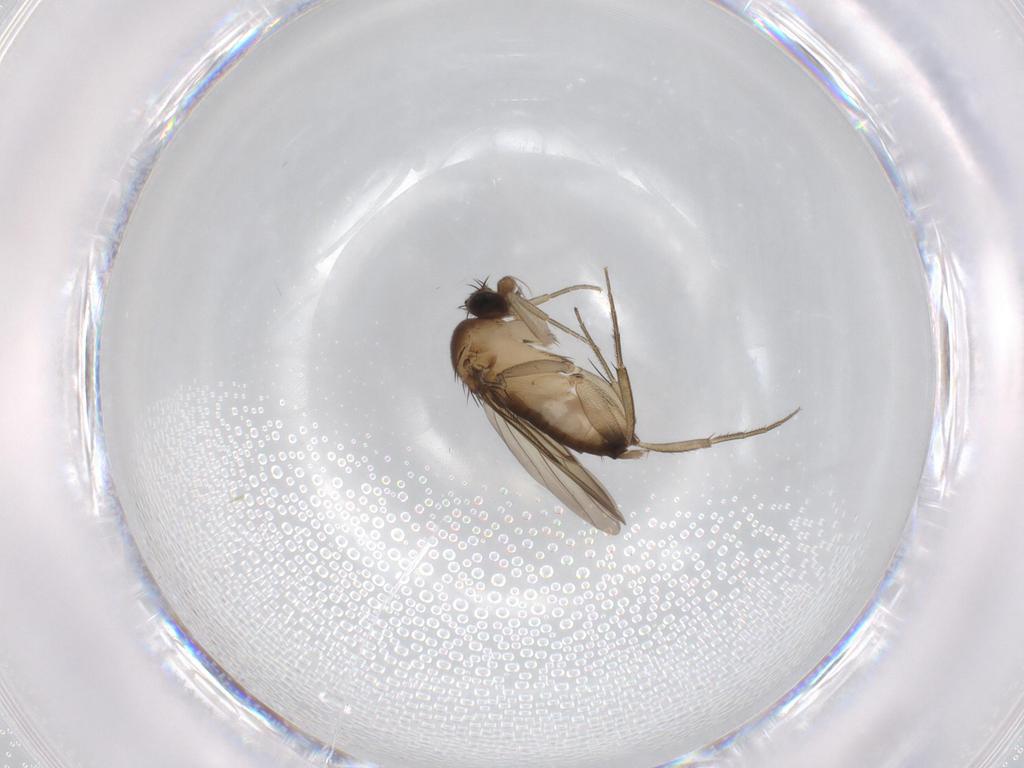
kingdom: Animalia
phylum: Arthropoda
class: Insecta
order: Diptera
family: Phoridae
